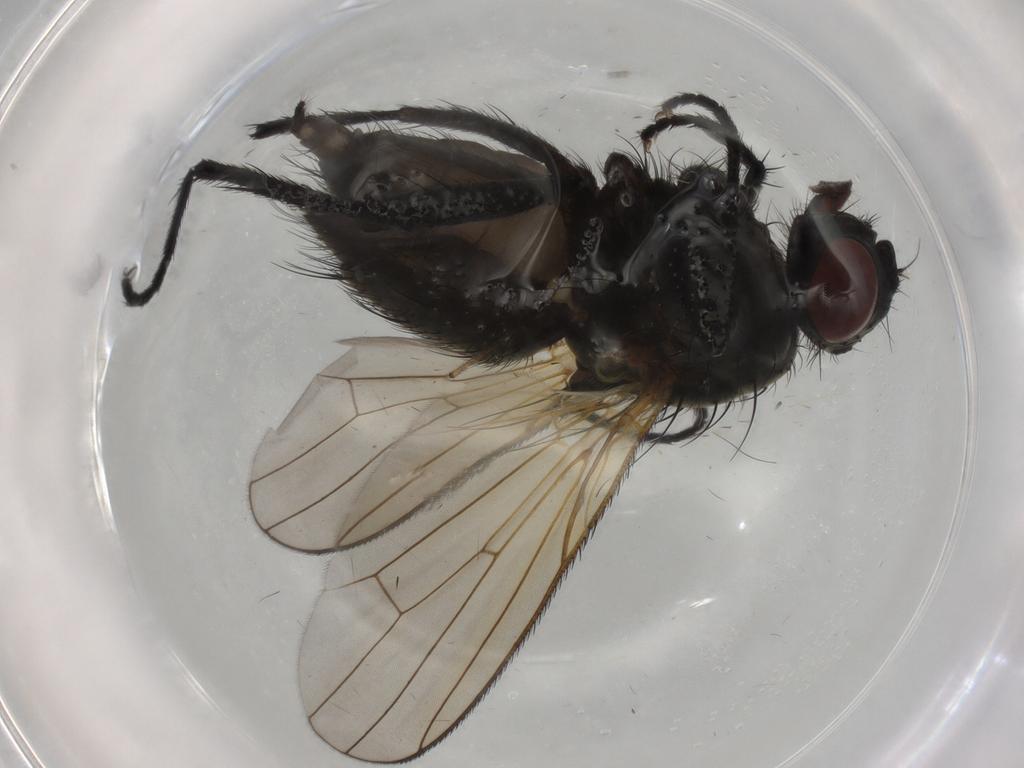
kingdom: Animalia
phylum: Arthropoda
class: Insecta
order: Diptera
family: Anthomyiidae
